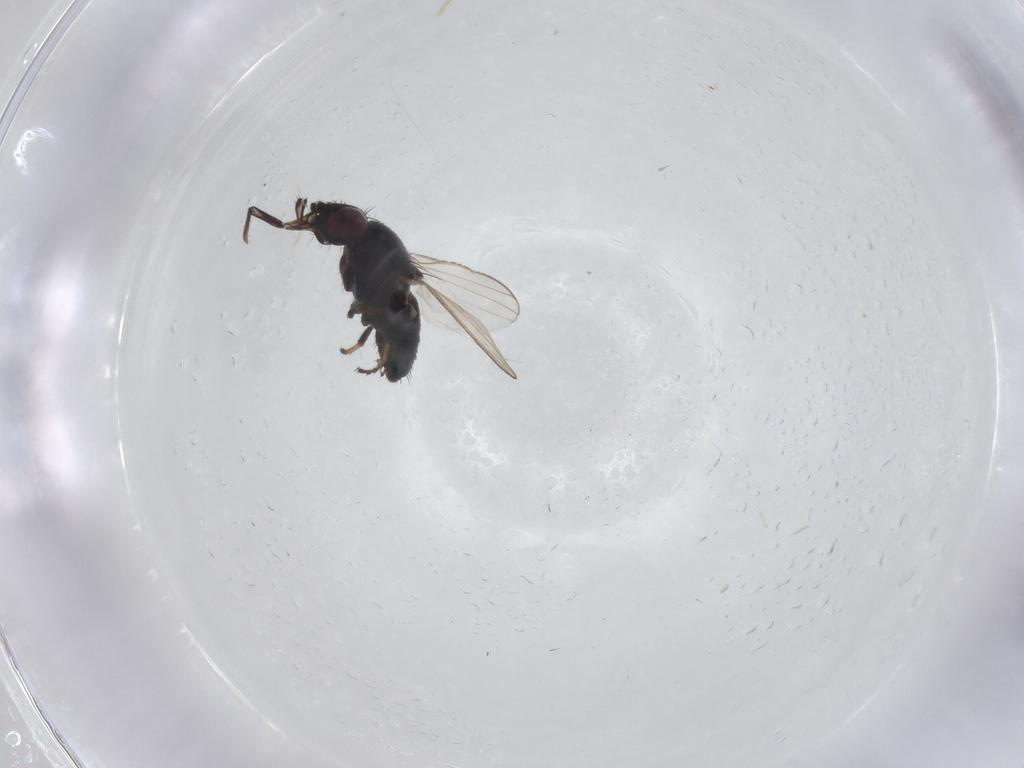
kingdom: Animalia
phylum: Arthropoda
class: Insecta
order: Diptera
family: Milichiidae
